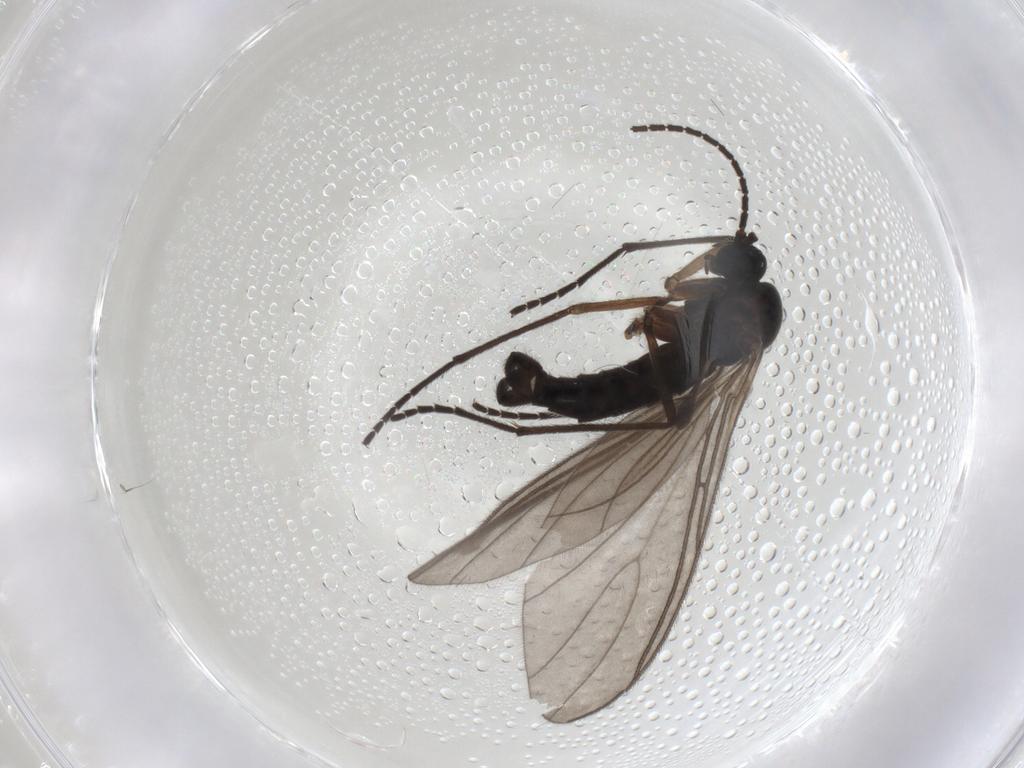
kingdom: Animalia
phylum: Arthropoda
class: Insecta
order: Diptera
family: Sciaridae
